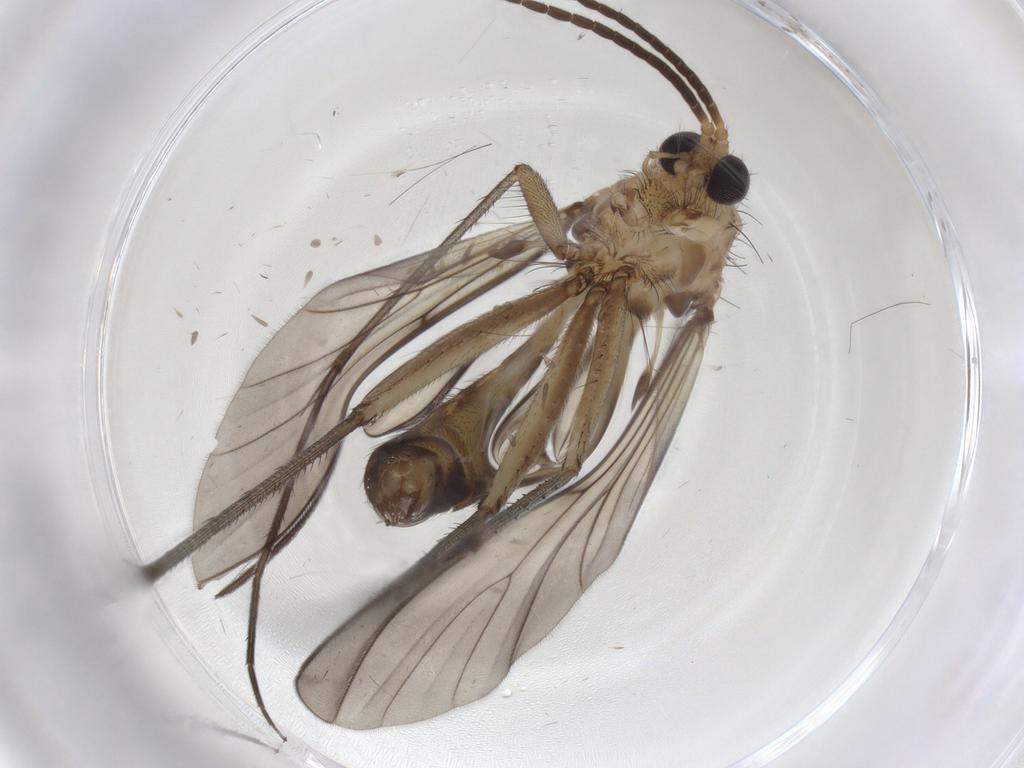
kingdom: Animalia
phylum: Arthropoda
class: Insecta
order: Diptera
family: Mycetophilidae
